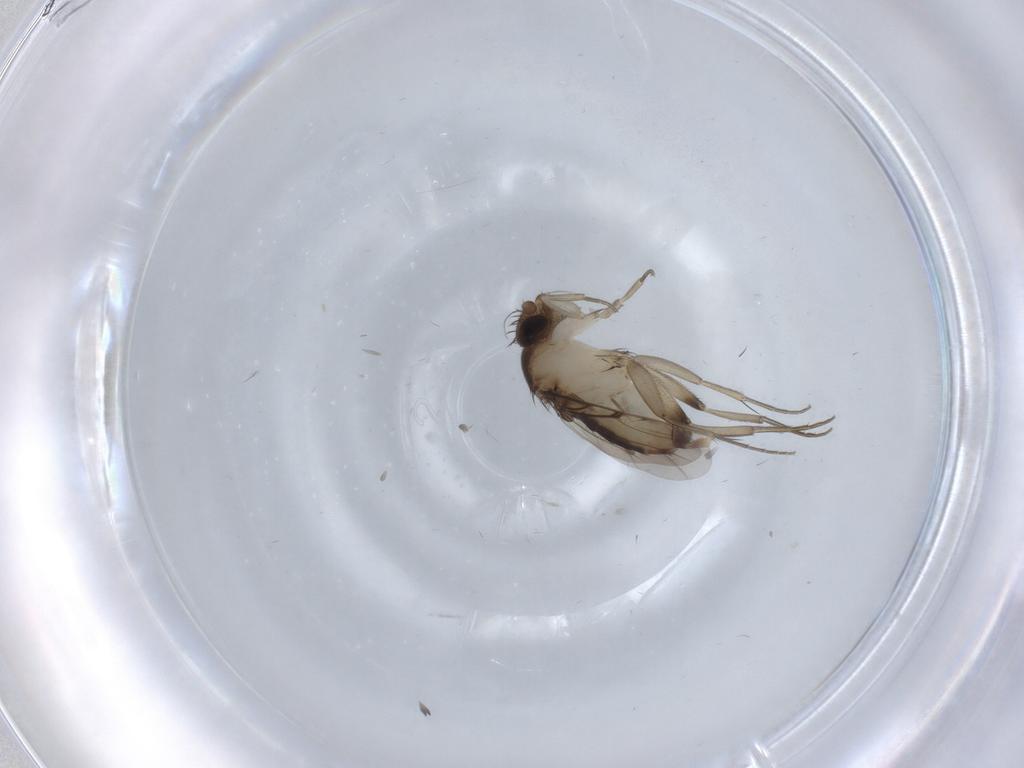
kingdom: Animalia
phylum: Arthropoda
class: Insecta
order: Diptera
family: Phoridae
